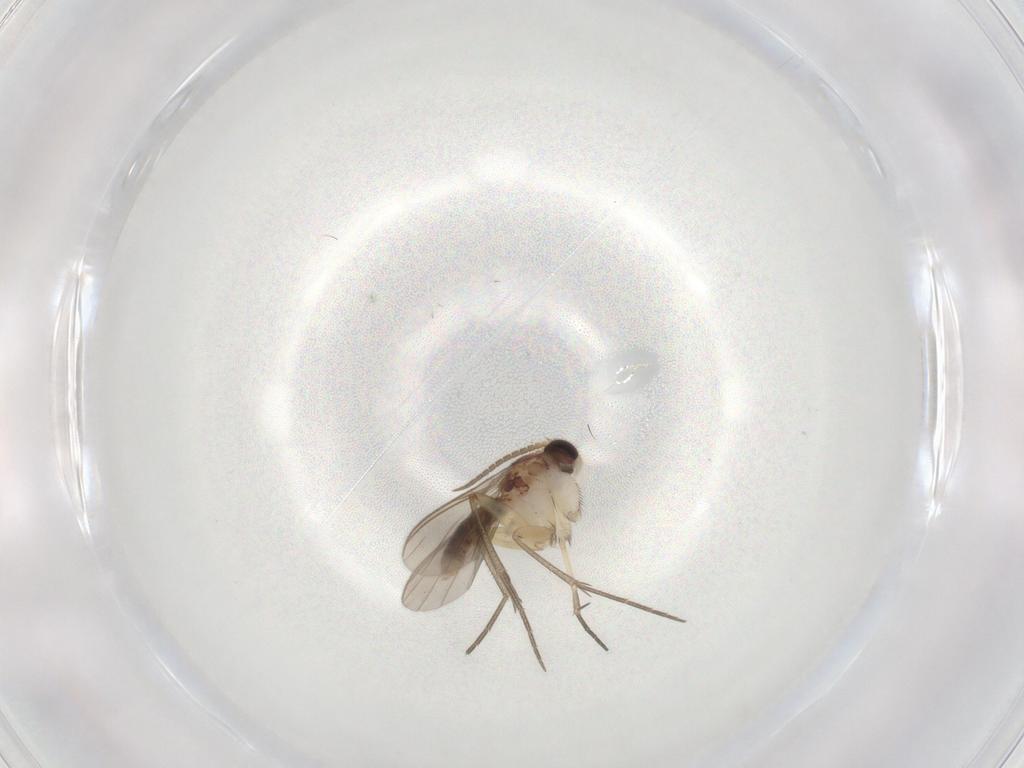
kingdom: Animalia
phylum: Arthropoda
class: Insecta
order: Diptera
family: Mycetophilidae
